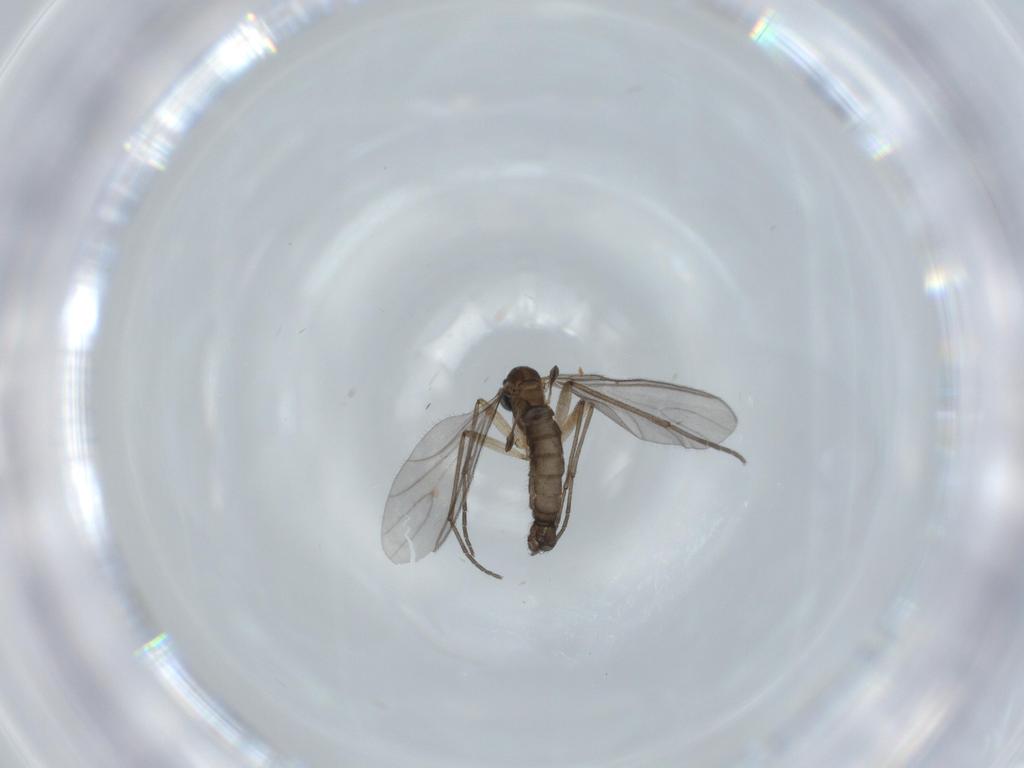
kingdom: Animalia
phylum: Arthropoda
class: Insecta
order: Diptera
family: Sciaridae
